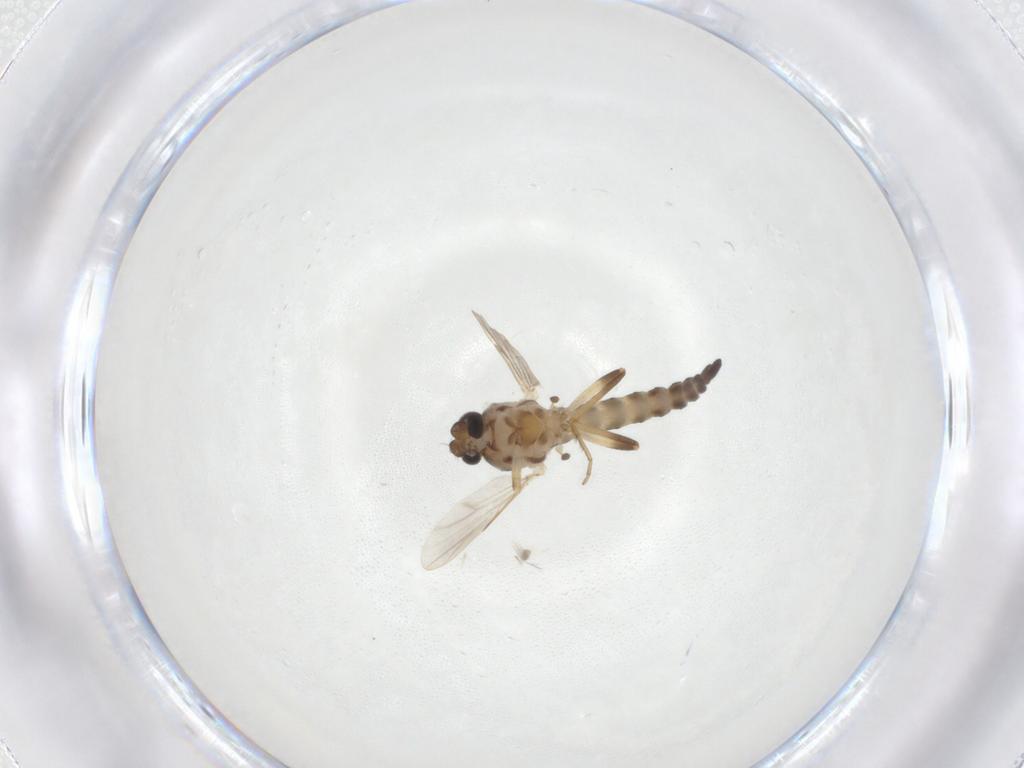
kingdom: Animalia
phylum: Arthropoda
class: Insecta
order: Diptera
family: Ceratopogonidae
